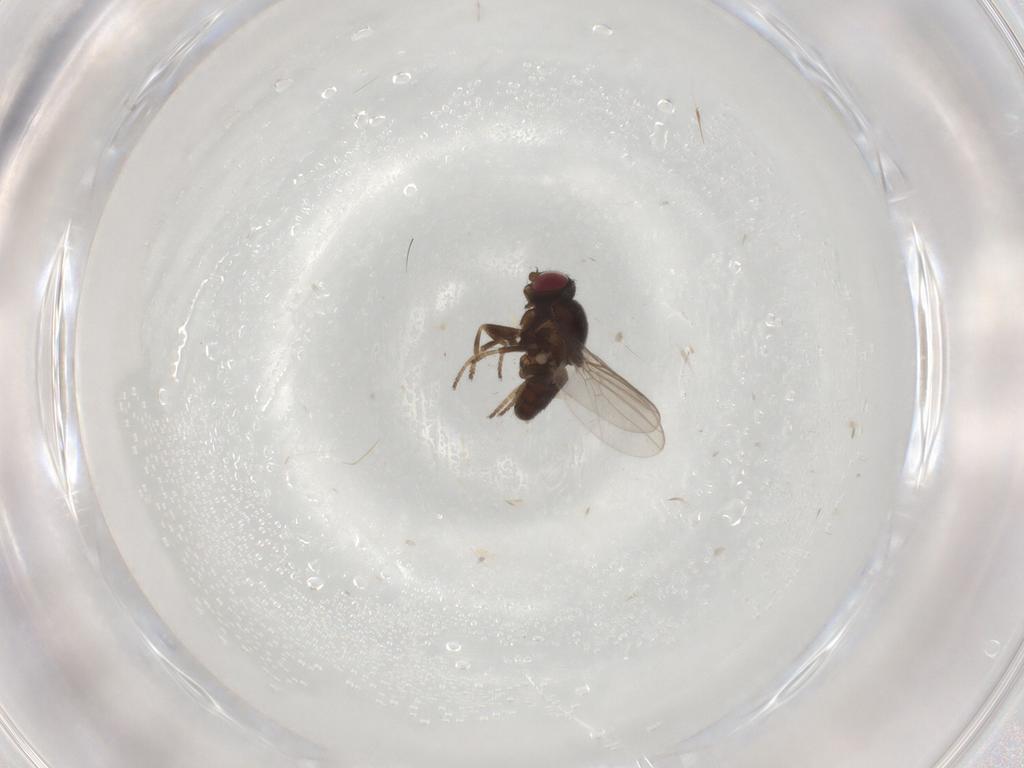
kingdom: Animalia
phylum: Arthropoda
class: Insecta
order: Diptera
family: Chloropidae
